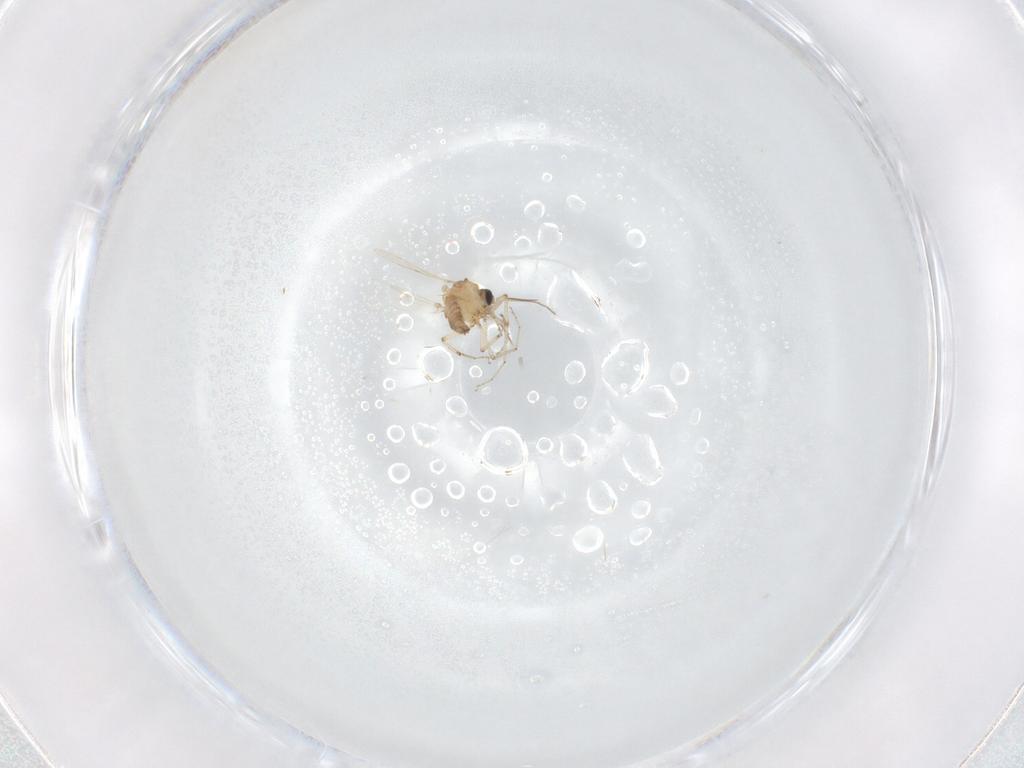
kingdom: Animalia
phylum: Arthropoda
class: Insecta
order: Diptera
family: Ceratopogonidae
